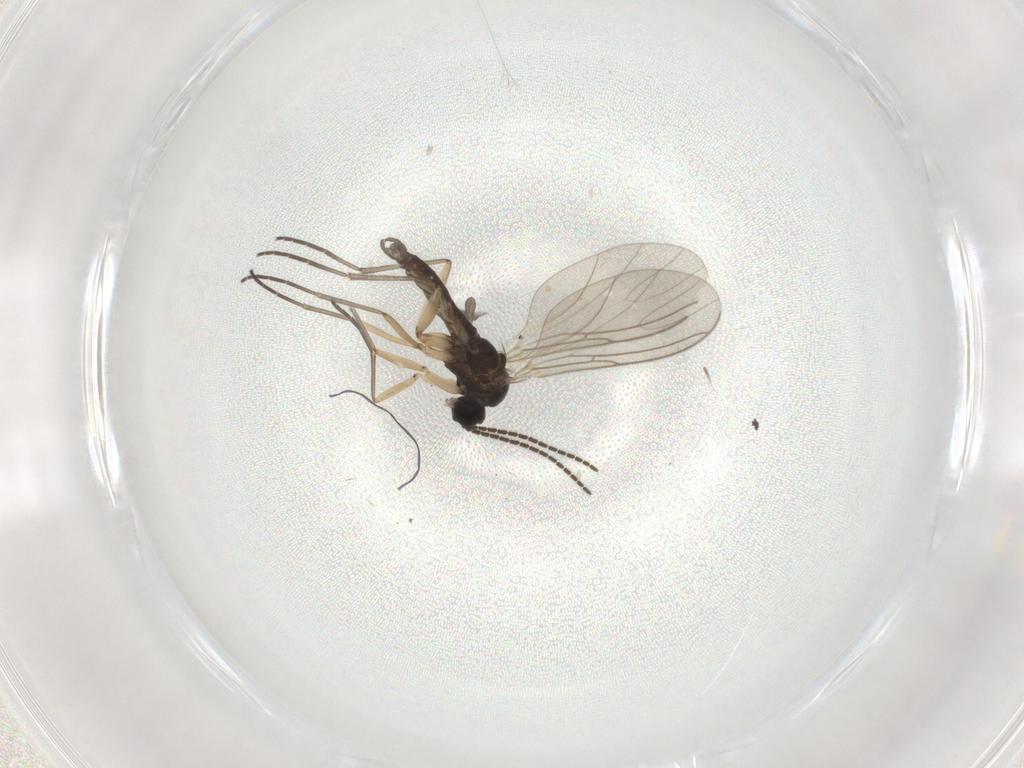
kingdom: Animalia
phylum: Arthropoda
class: Insecta
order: Diptera
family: Sciaridae
